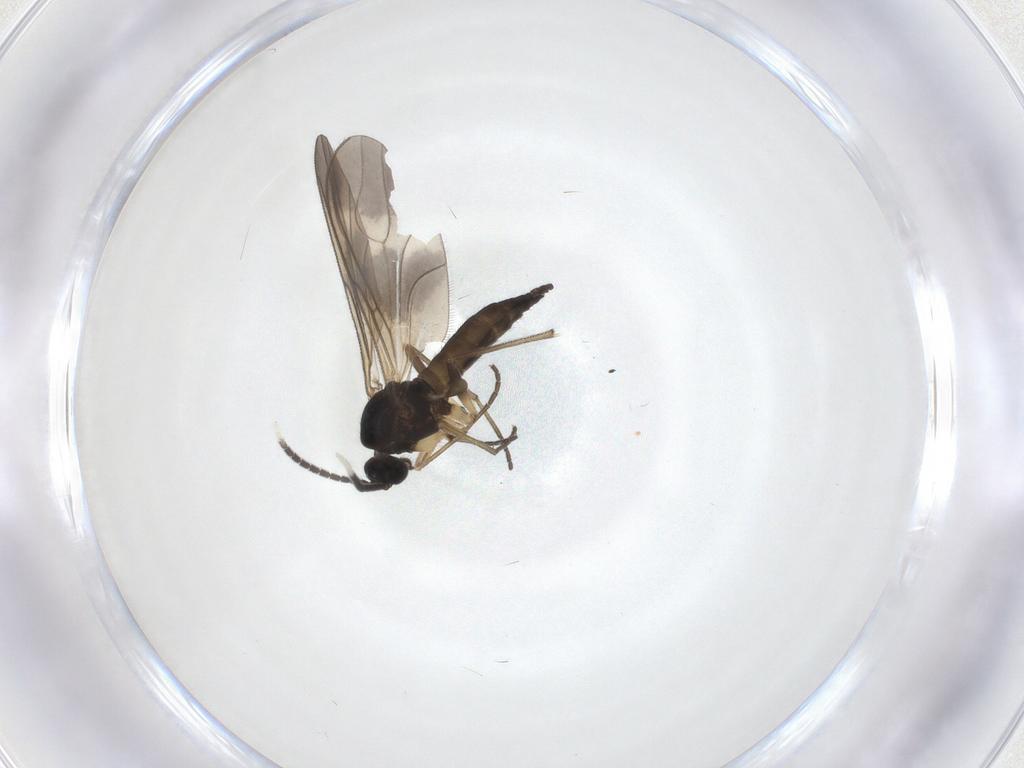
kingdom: Animalia
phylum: Arthropoda
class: Insecta
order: Diptera
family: Sciaridae
